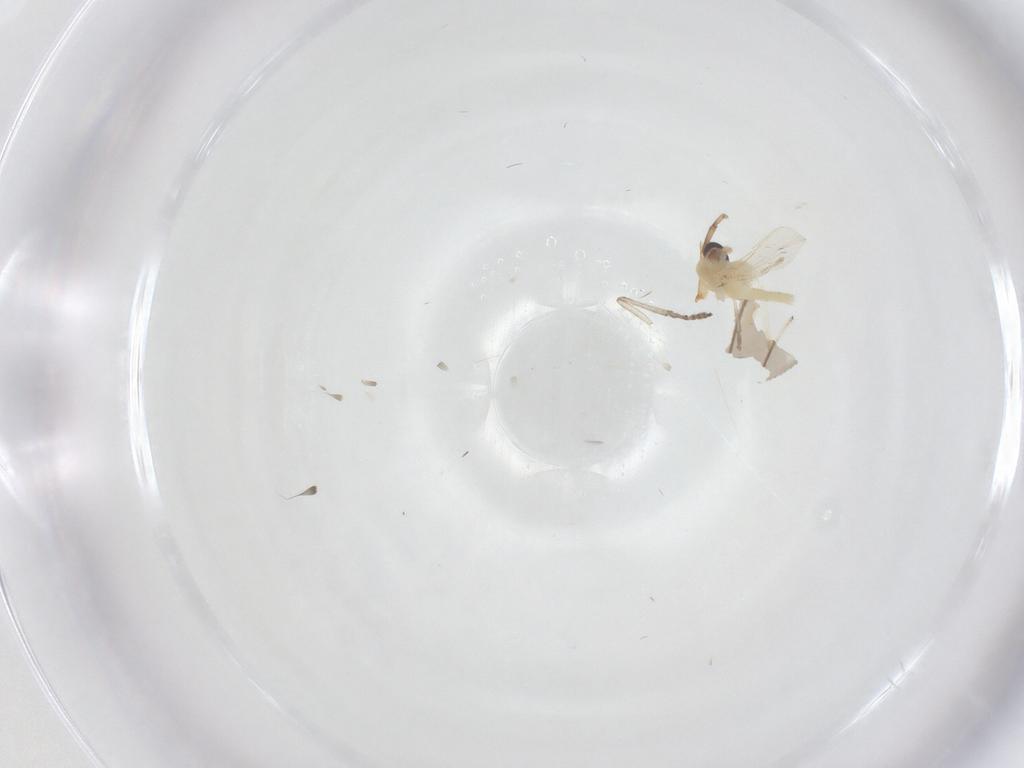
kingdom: Animalia
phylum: Arthropoda
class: Insecta
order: Diptera
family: Chironomidae
